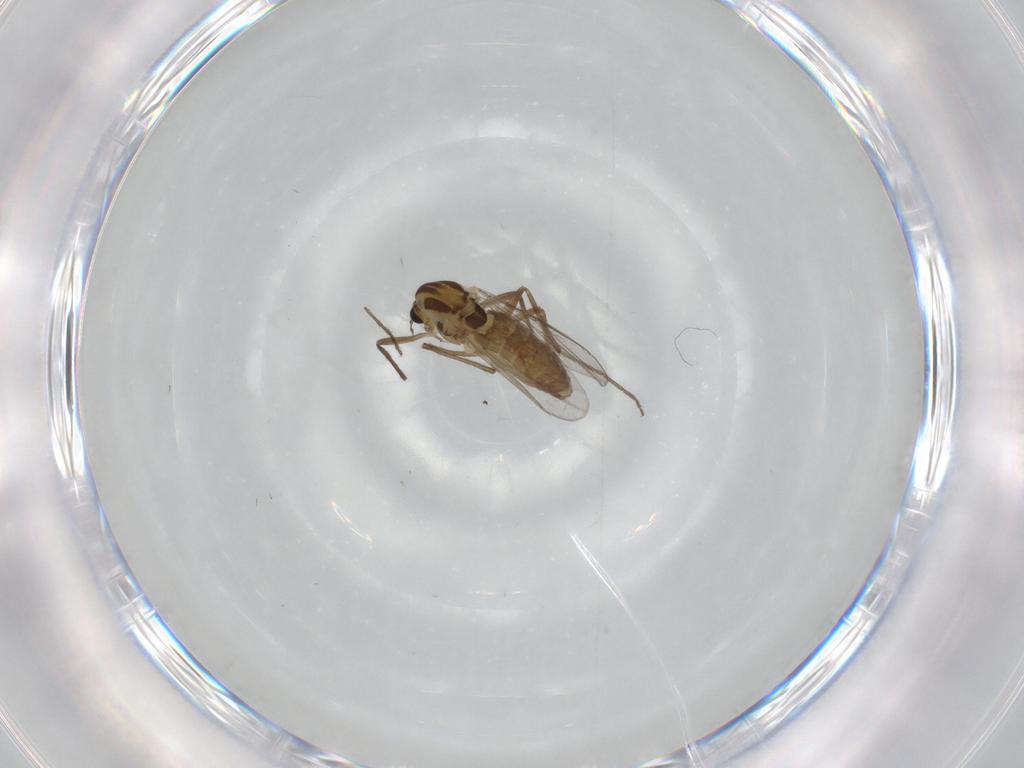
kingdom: Animalia
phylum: Arthropoda
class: Insecta
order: Diptera
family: Chironomidae
